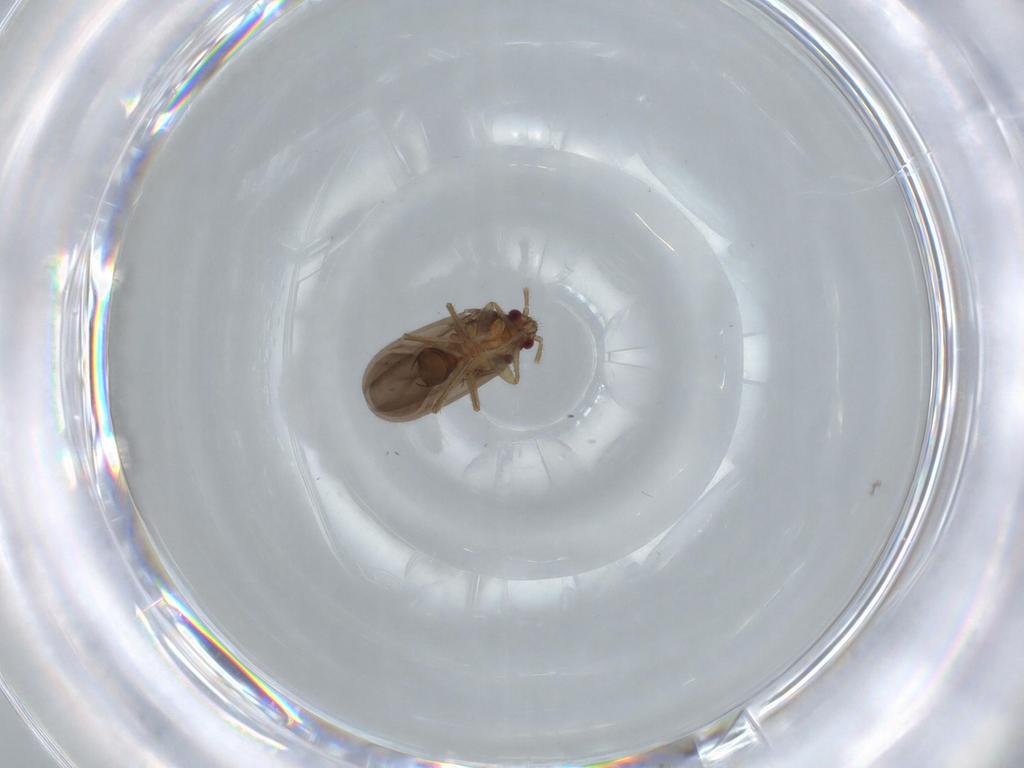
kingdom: Animalia
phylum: Arthropoda
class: Insecta
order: Hemiptera
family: Ceratocombidae
